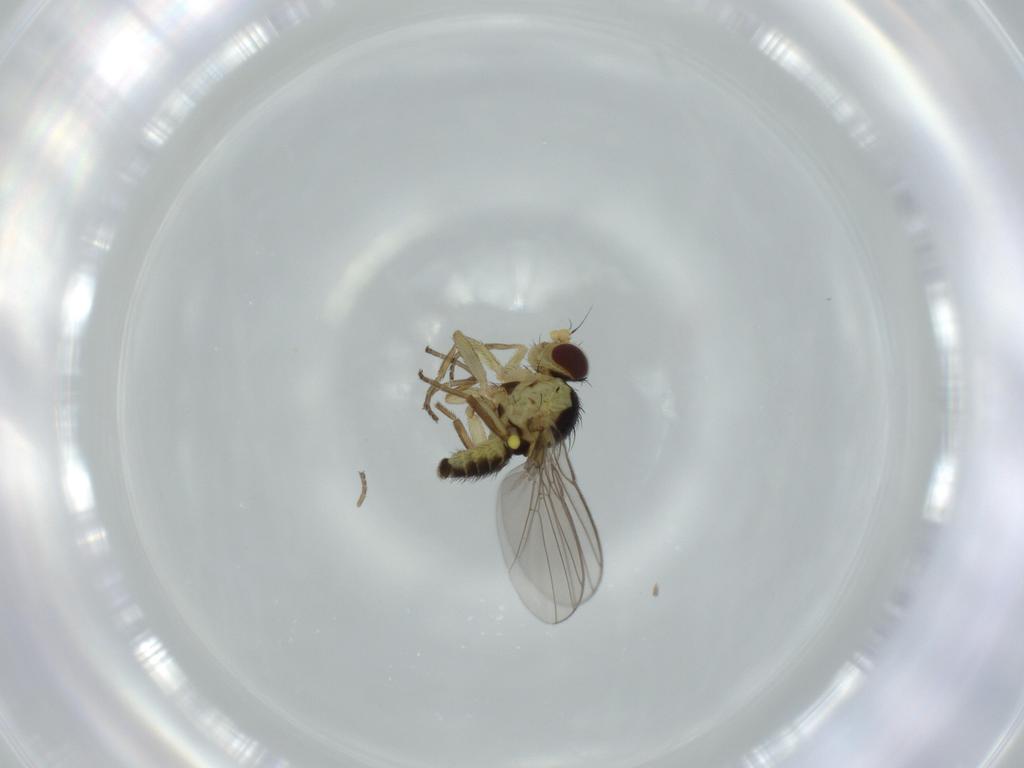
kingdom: Animalia
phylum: Arthropoda
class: Insecta
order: Diptera
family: Agromyzidae
